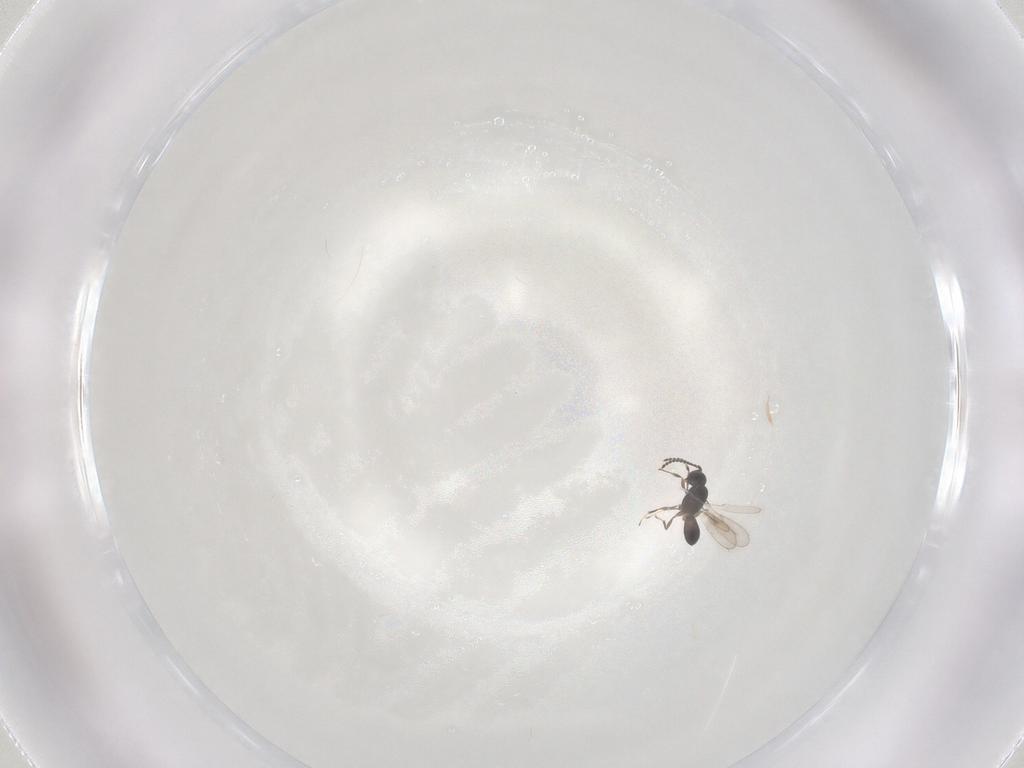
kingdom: Animalia
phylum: Arthropoda
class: Insecta
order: Hymenoptera
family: Scelionidae
